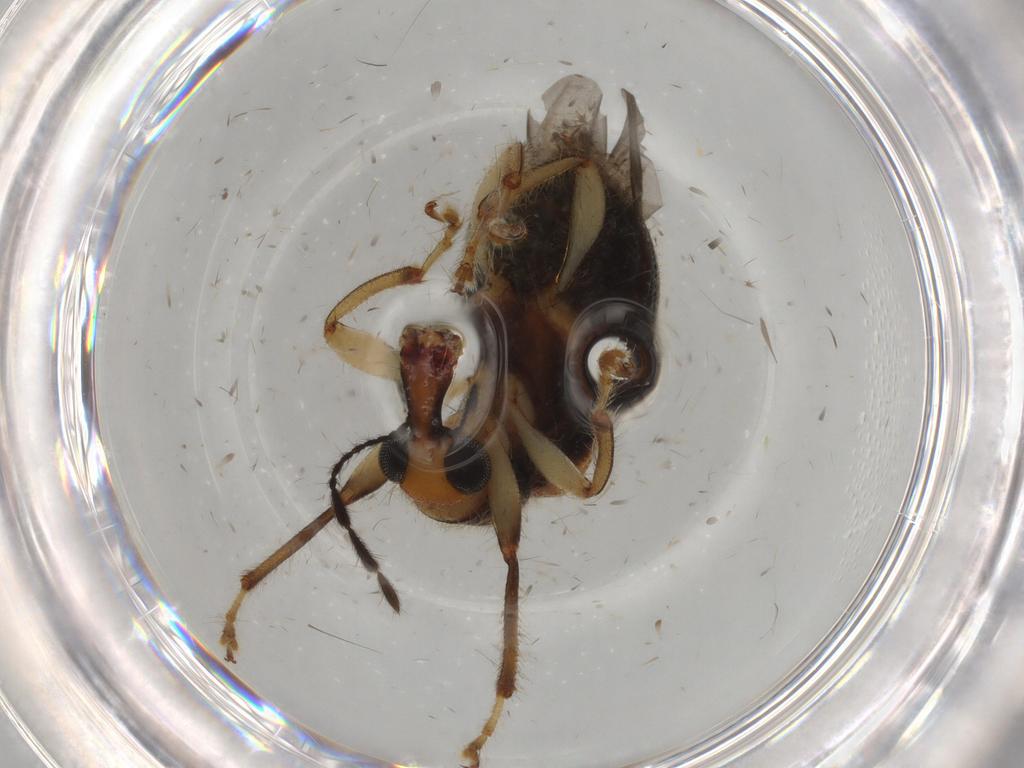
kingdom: Animalia
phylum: Arthropoda
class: Insecta
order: Coleoptera
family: Attelabidae
